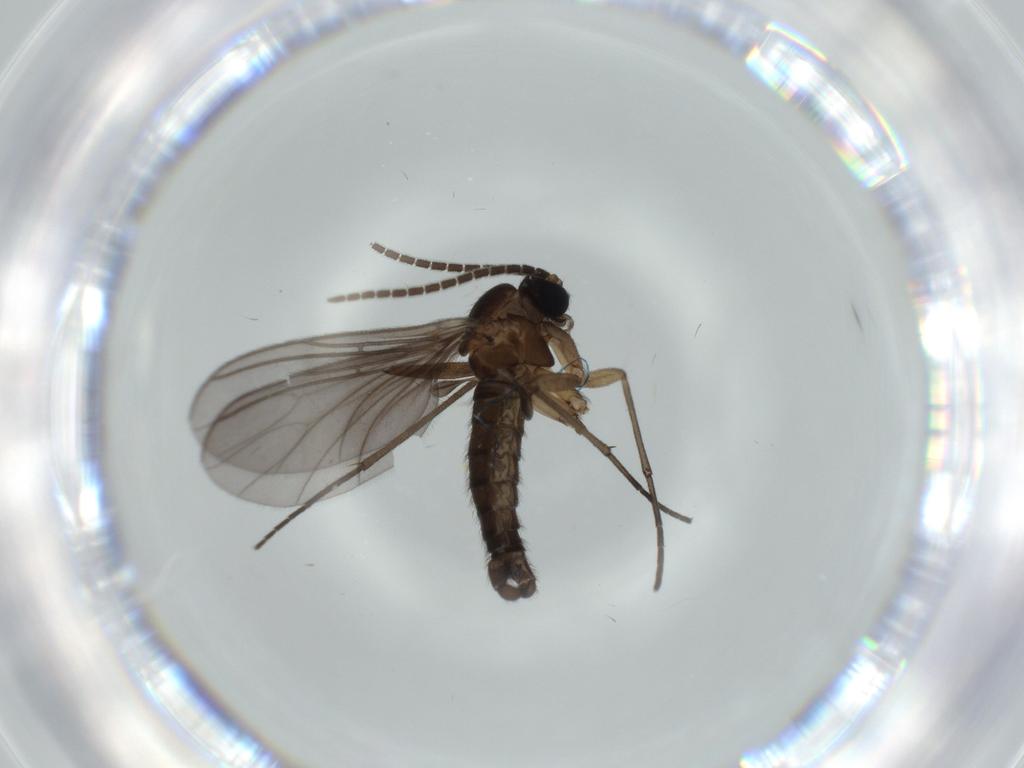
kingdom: Animalia
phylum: Arthropoda
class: Insecta
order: Diptera
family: Sciaridae
